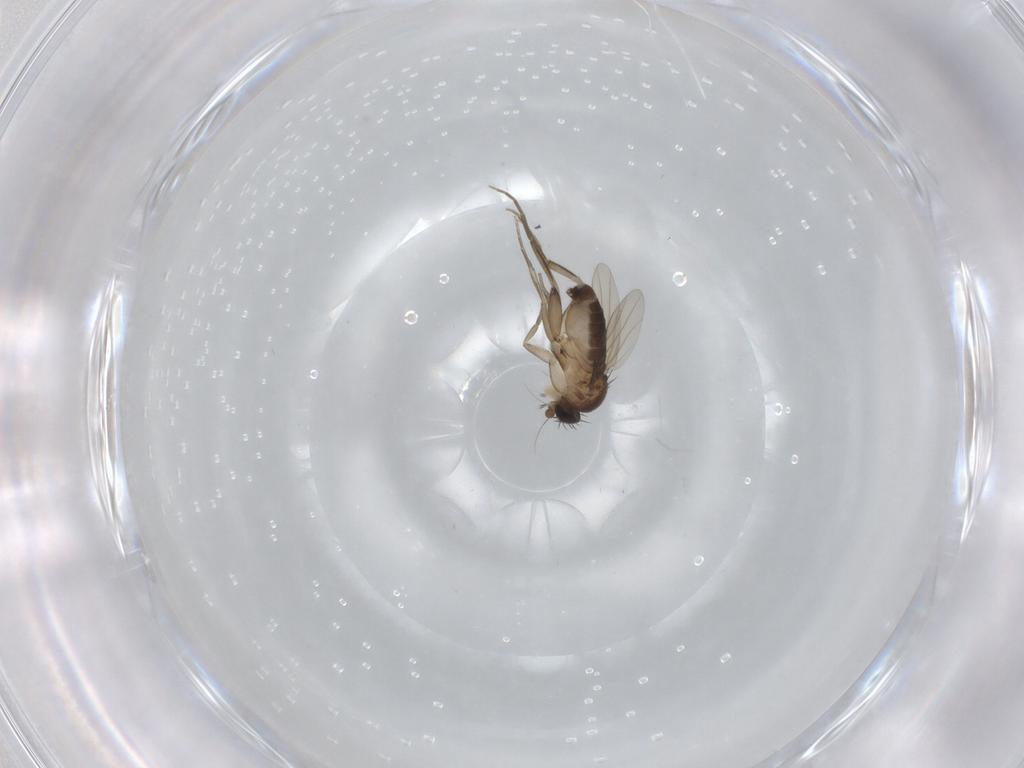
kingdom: Animalia
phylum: Arthropoda
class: Insecta
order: Diptera
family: Phoridae
